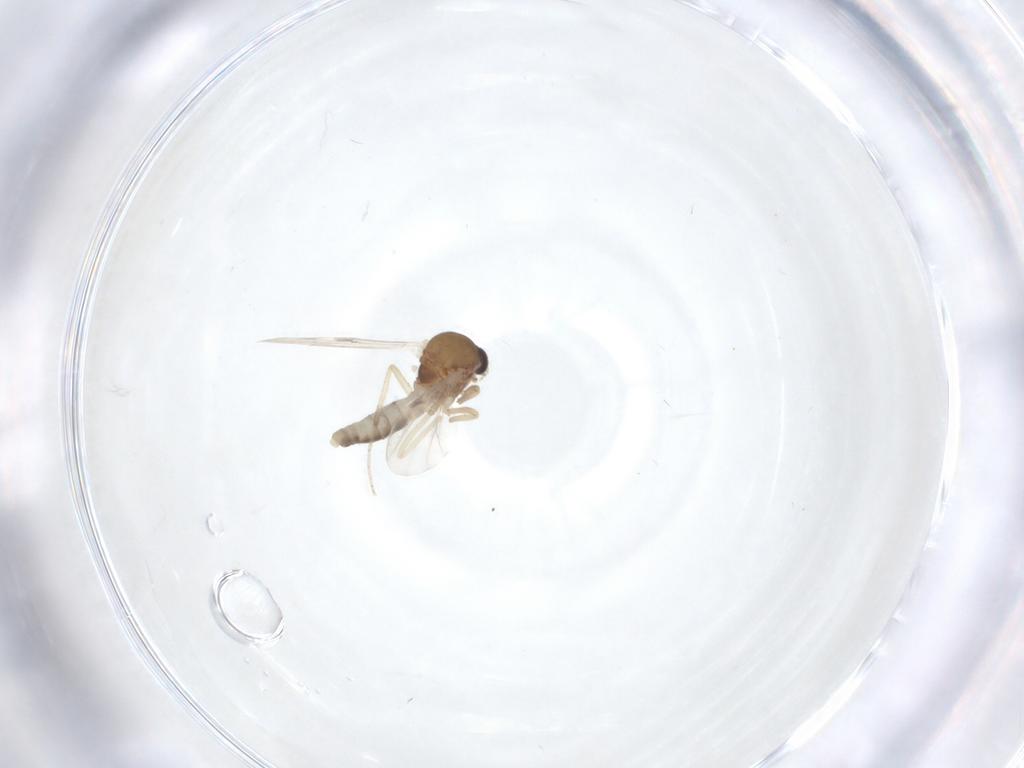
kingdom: Animalia
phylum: Arthropoda
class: Insecta
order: Diptera
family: Ceratopogonidae
